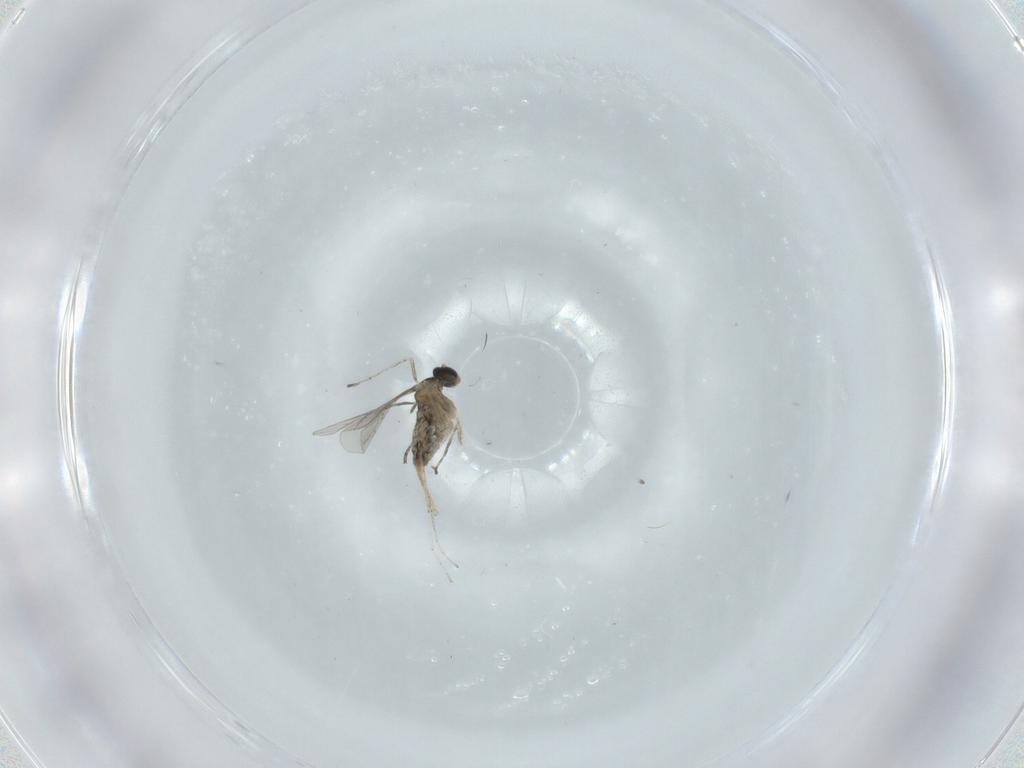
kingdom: Animalia
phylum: Arthropoda
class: Insecta
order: Diptera
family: Cecidomyiidae
